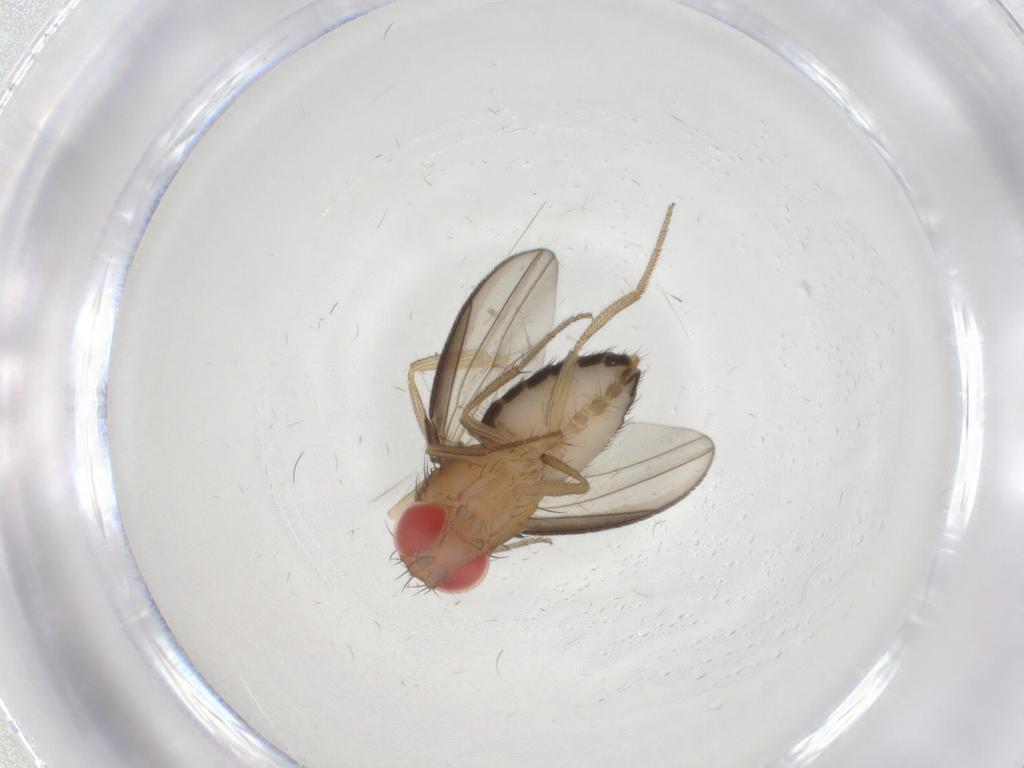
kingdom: Animalia
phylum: Arthropoda
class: Insecta
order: Diptera
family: Drosophilidae
